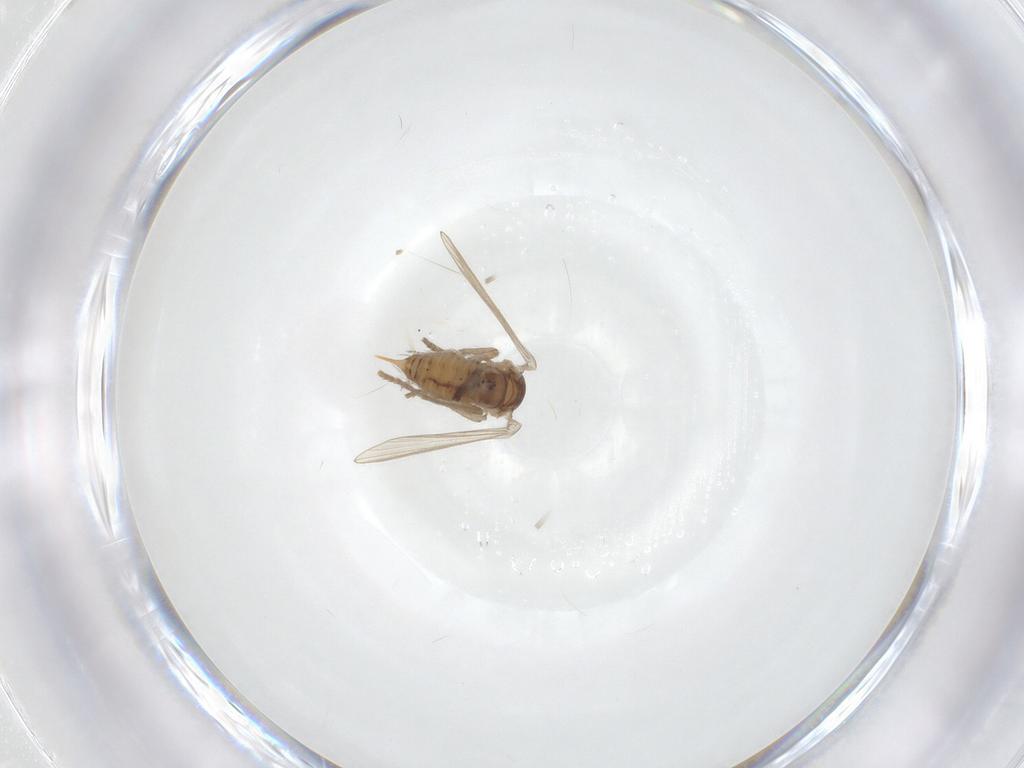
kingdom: Animalia
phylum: Arthropoda
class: Insecta
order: Diptera
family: Psychodidae
